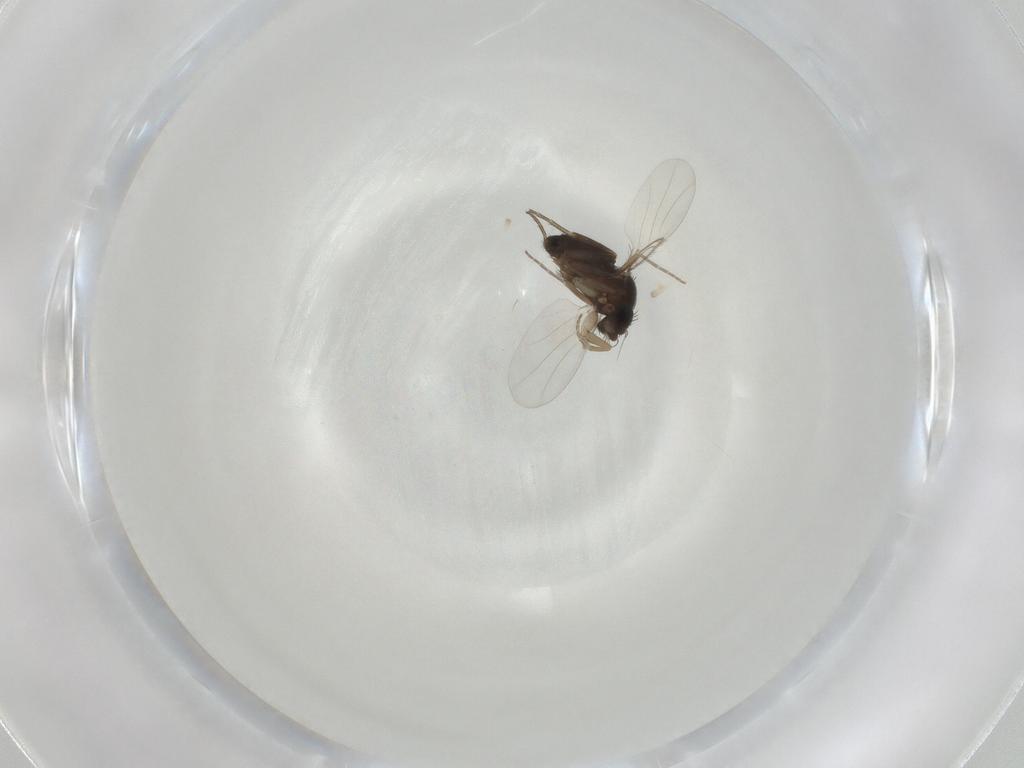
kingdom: Animalia
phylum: Arthropoda
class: Insecta
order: Diptera
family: Phoridae
